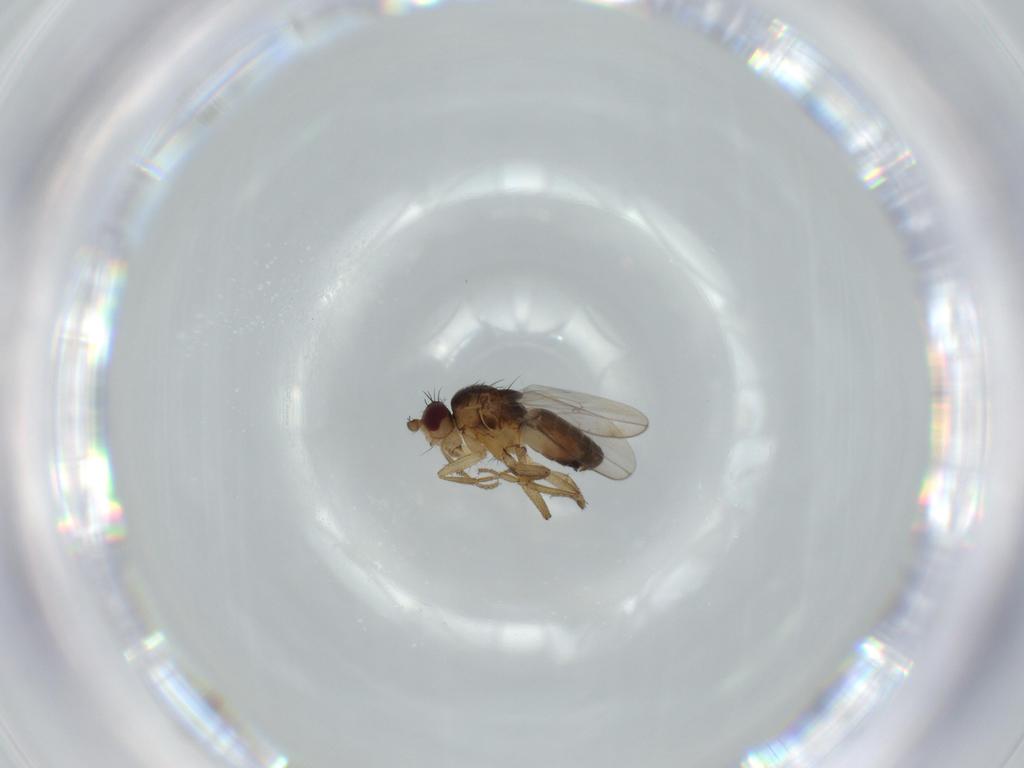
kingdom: Animalia
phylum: Arthropoda
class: Insecta
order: Diptera
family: Sphaeroceridae
